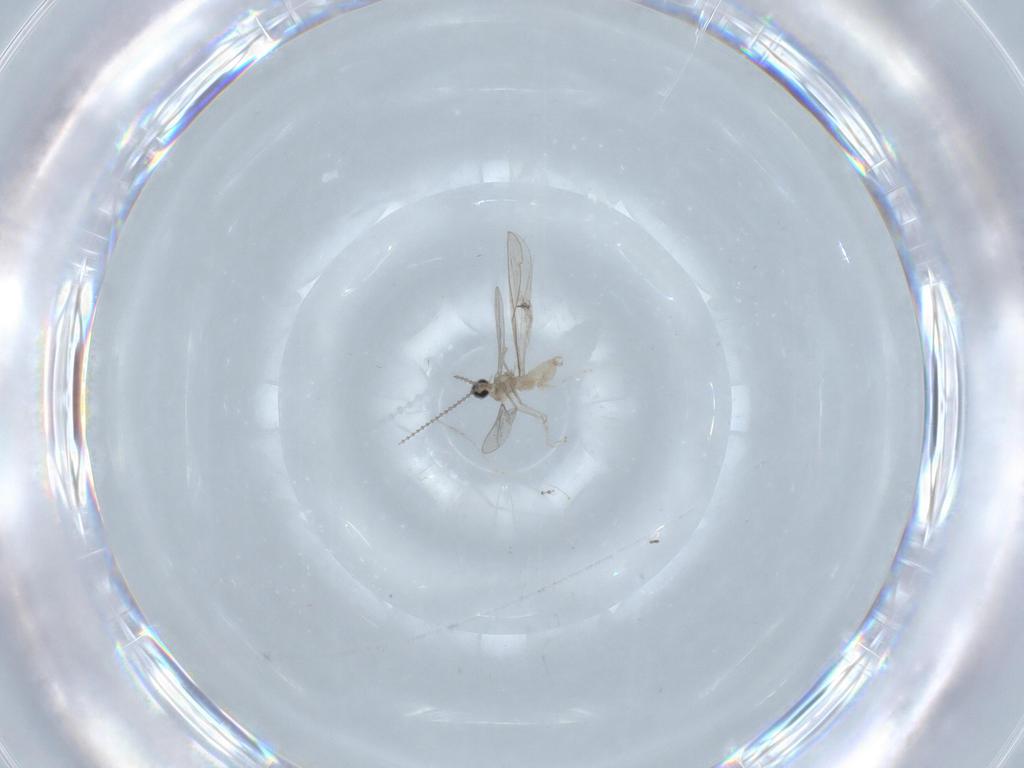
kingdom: Animalia
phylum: Arthropoda
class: Insecta
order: Diptera
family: Cecidomyiidae
